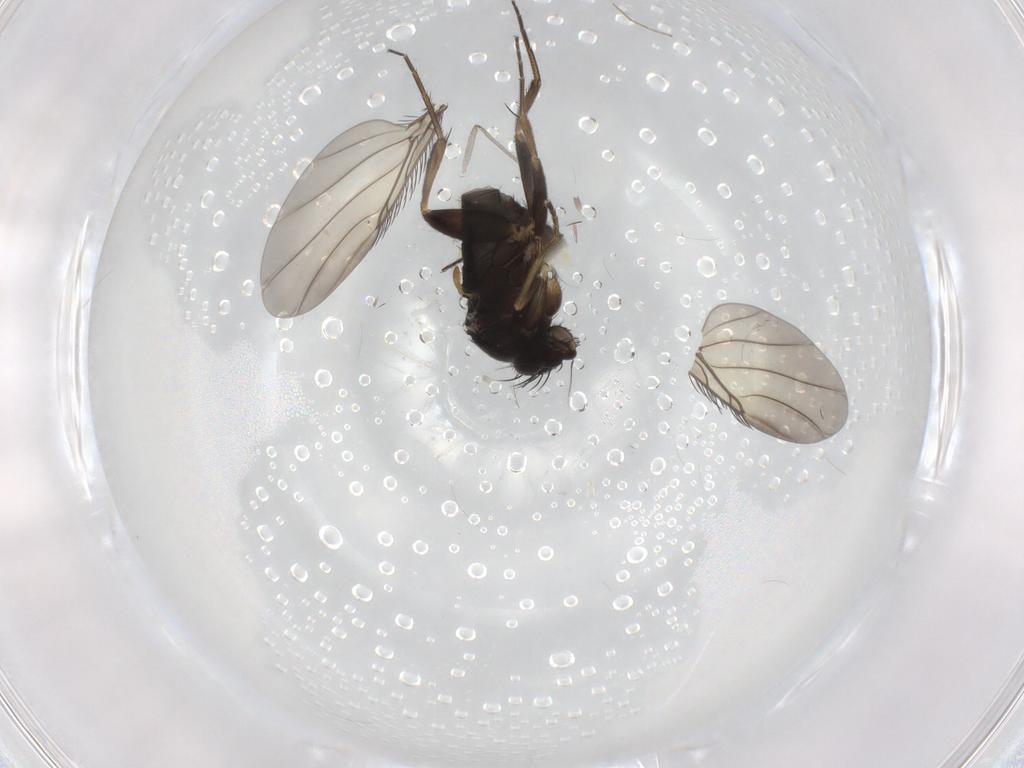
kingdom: Animalia
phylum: Arthropoda
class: Insecta
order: Diptera
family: Phoridae
